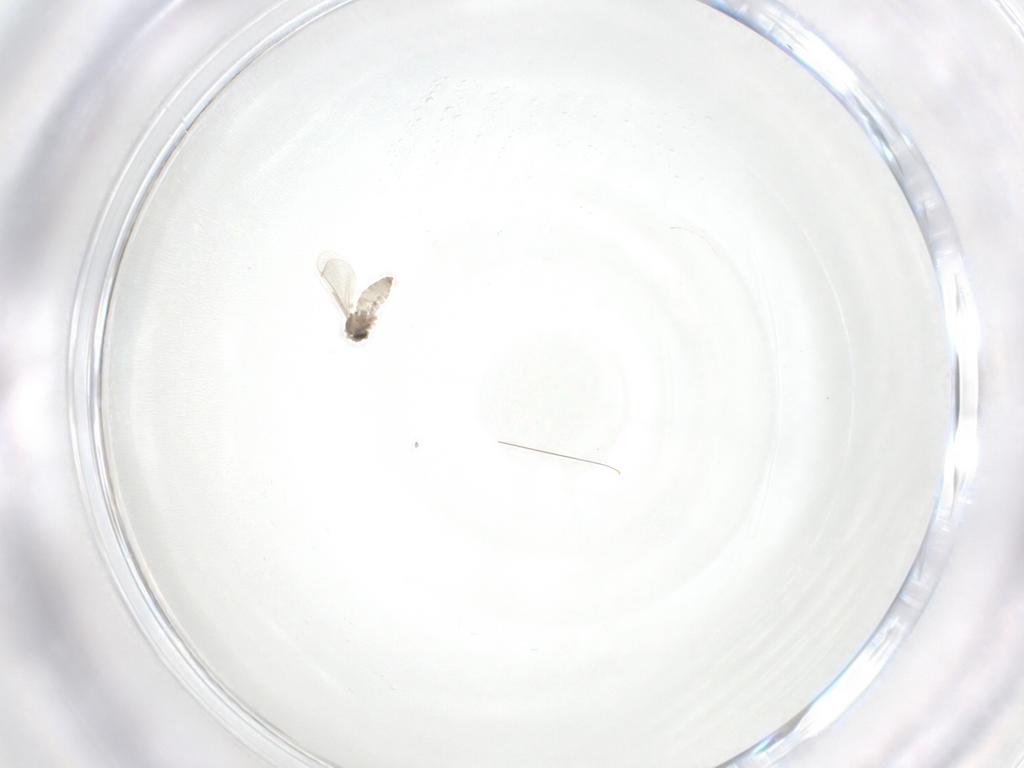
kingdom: Animalia
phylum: Arthropoda
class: Insecta
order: Diptera
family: Cecidomyiidae
